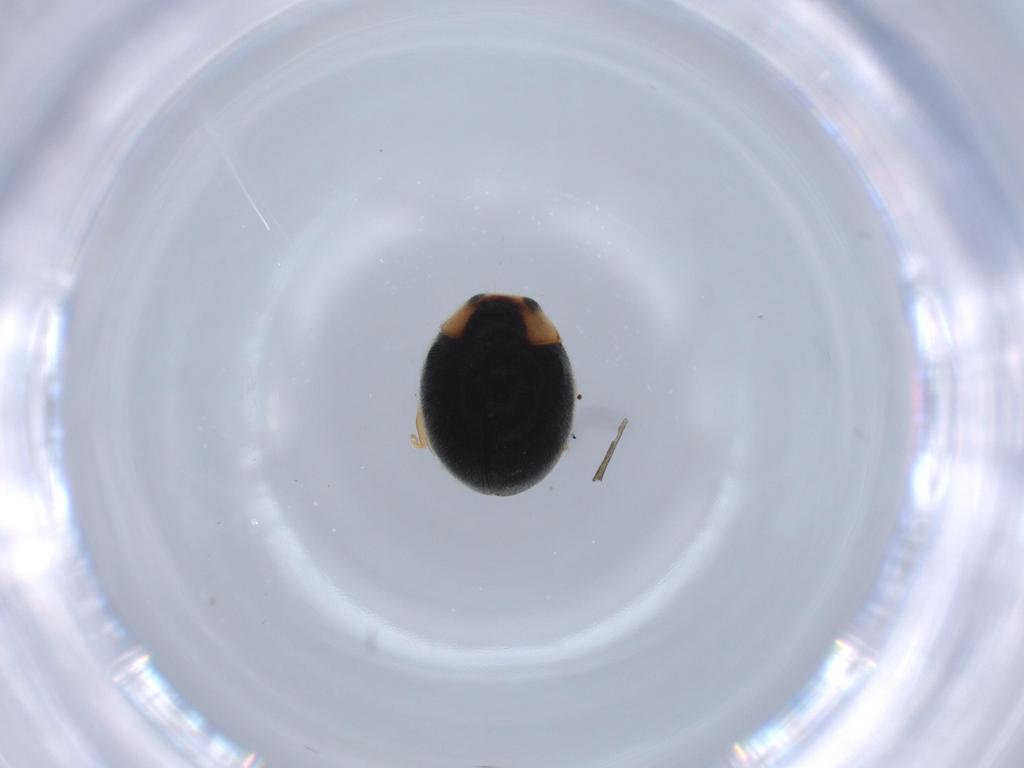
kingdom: Animalia
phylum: Arthropoda
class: Insecta
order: Coleoptera
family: Coccinellidae
